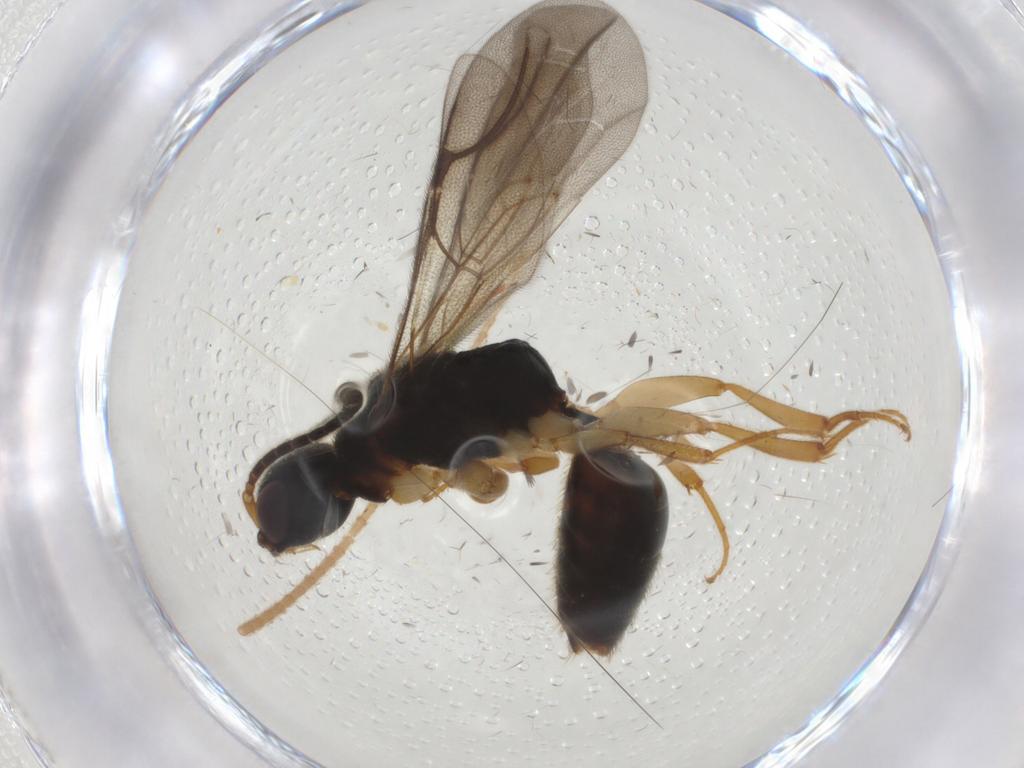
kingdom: Animalia
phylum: Arthropoda
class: Insecta
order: Hymenoptera
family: Bethylidae
